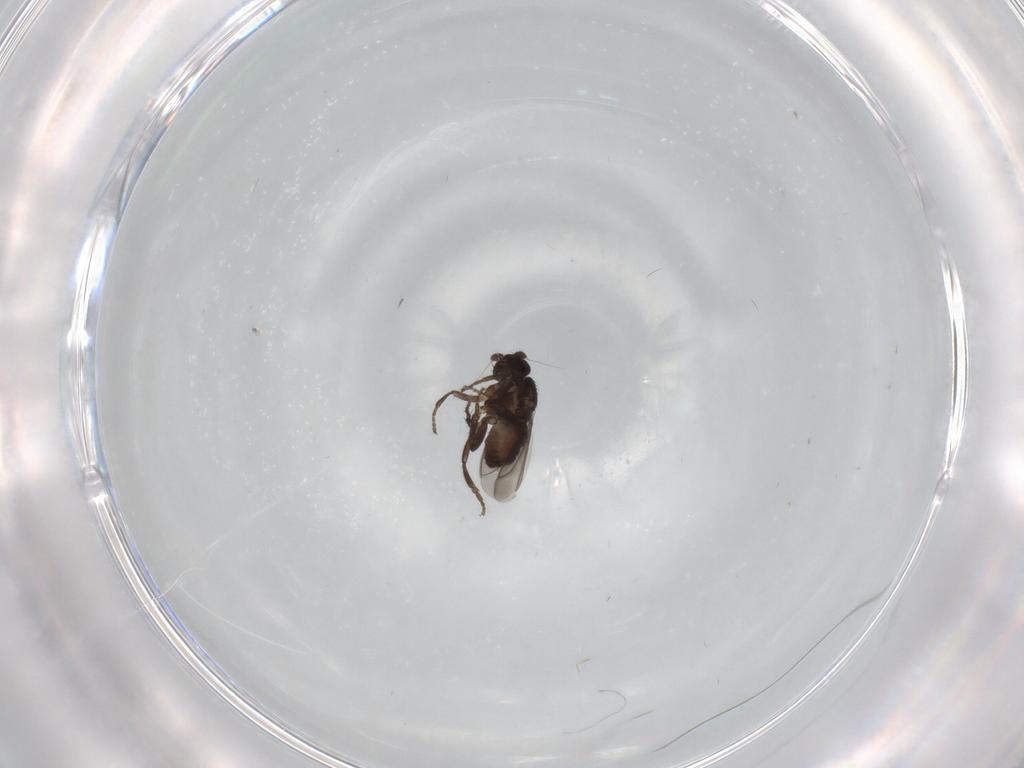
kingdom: Animalia
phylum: Arthropoda
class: Insecta
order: Diptera
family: Sphaeroceridae
